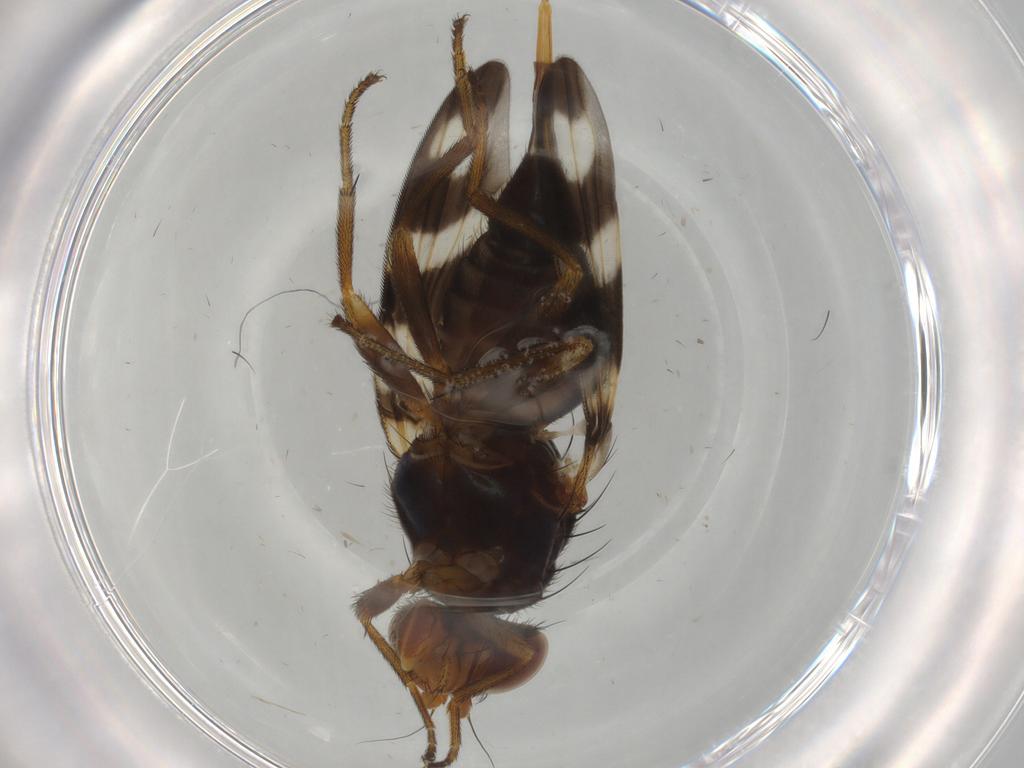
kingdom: Animalia
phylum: Arthropoda
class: Insecta
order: Diptera
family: Ulidiidae
